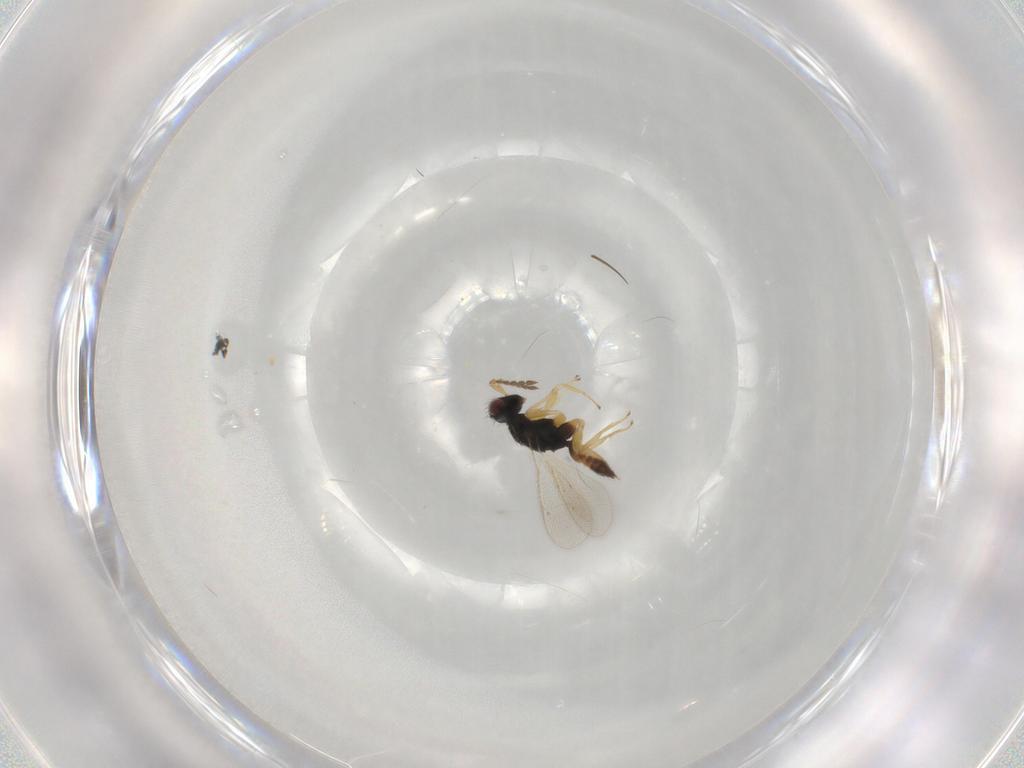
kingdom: Animalia
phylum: Arthropoda
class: Insecta
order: Hymenoptera
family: Eulophidae
